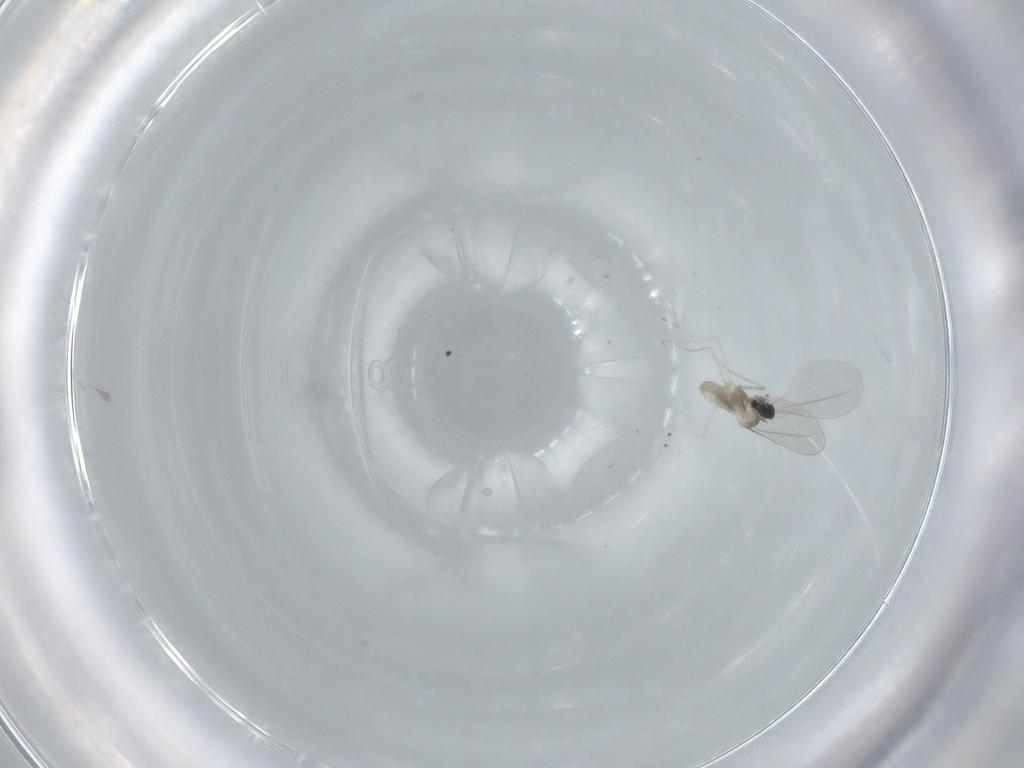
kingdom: Animalia
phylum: Arthropoda
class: Insecta
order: Diptera
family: Cecidomyiidae
